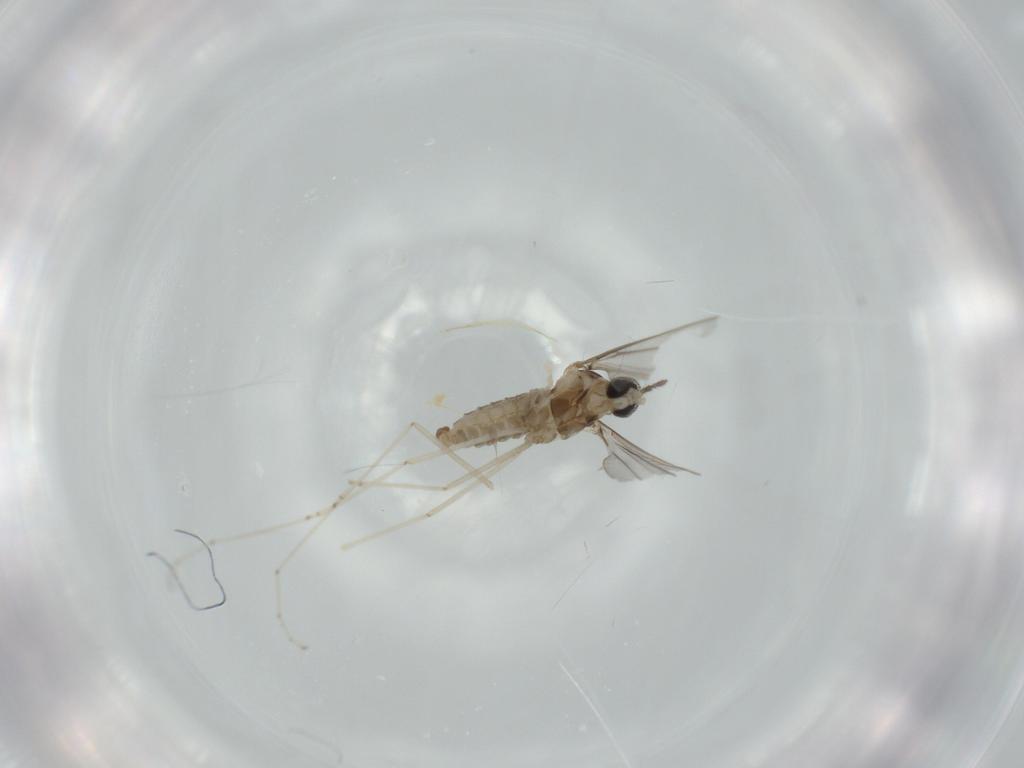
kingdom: Animalia
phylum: Arthropoda
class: Insecta
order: Diptera
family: Cecidomyiidae
